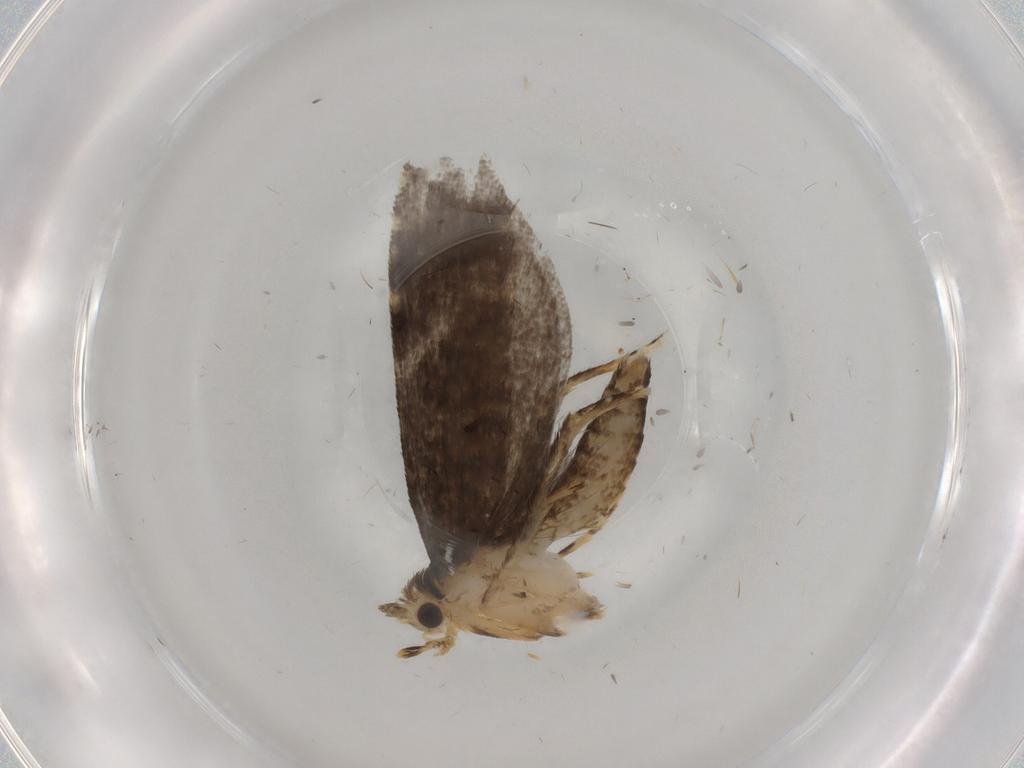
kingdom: Animalia
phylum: Arthropoda
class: Insecta
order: Lepidoptera
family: Tineidae
